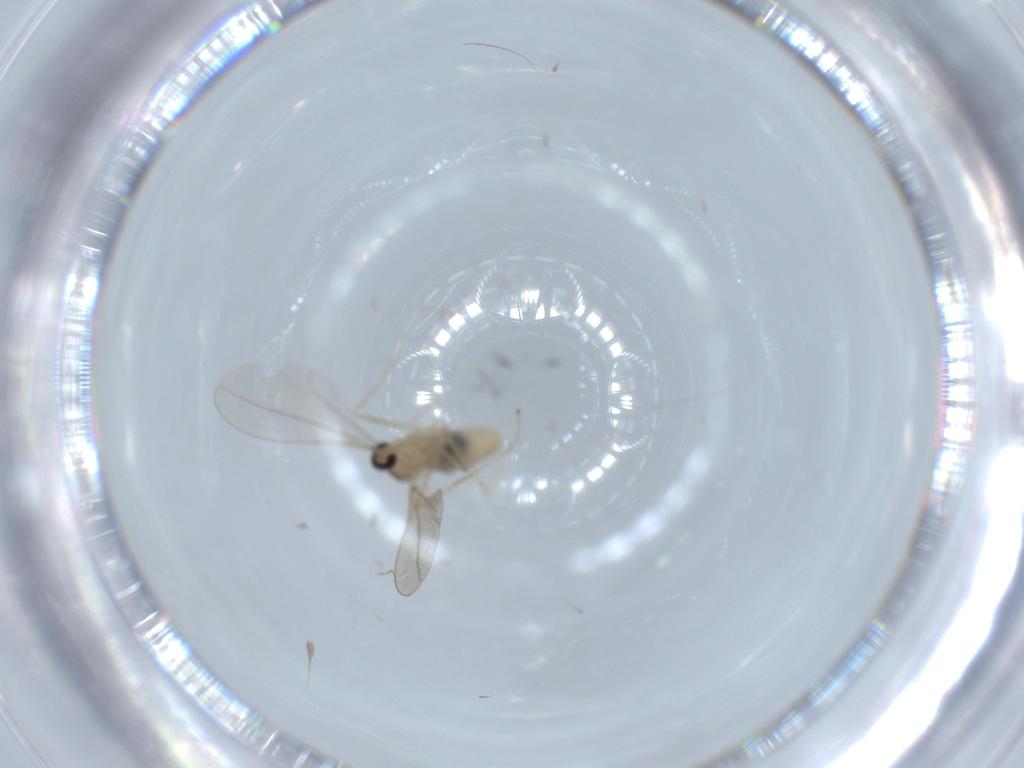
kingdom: Animalia
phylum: Arthropoda
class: Insecta
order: Diptera
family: Cecidomyiidae
